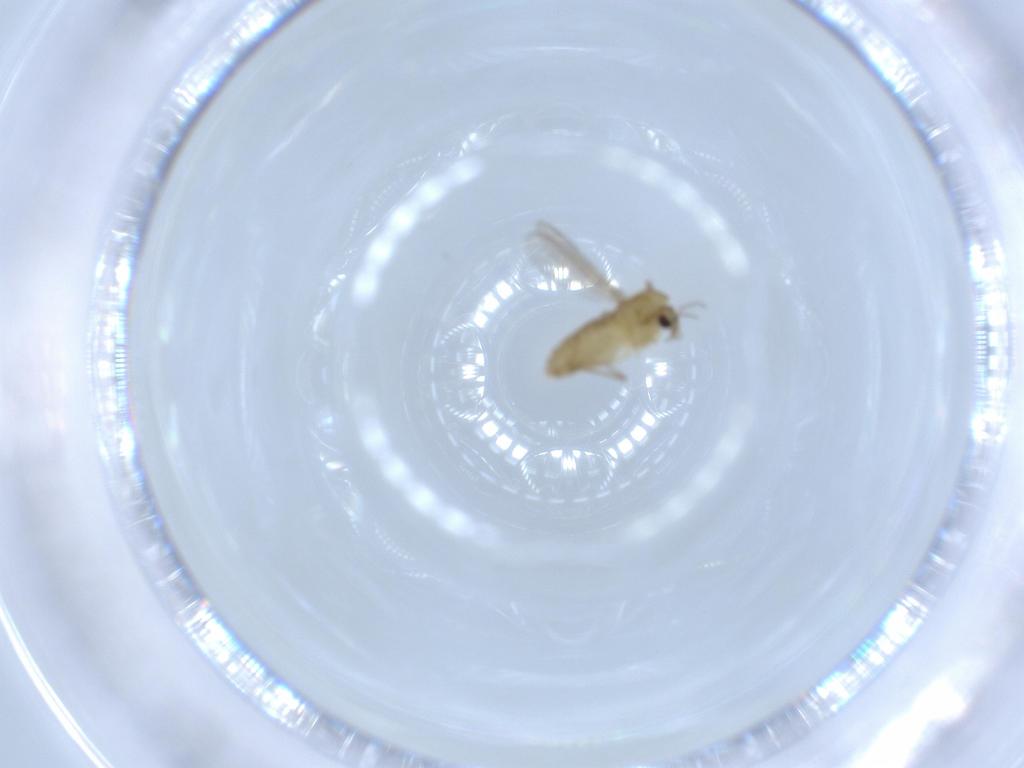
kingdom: Animalia
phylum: Arthropoda
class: Insecta
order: Diptera
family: Chironomidae
